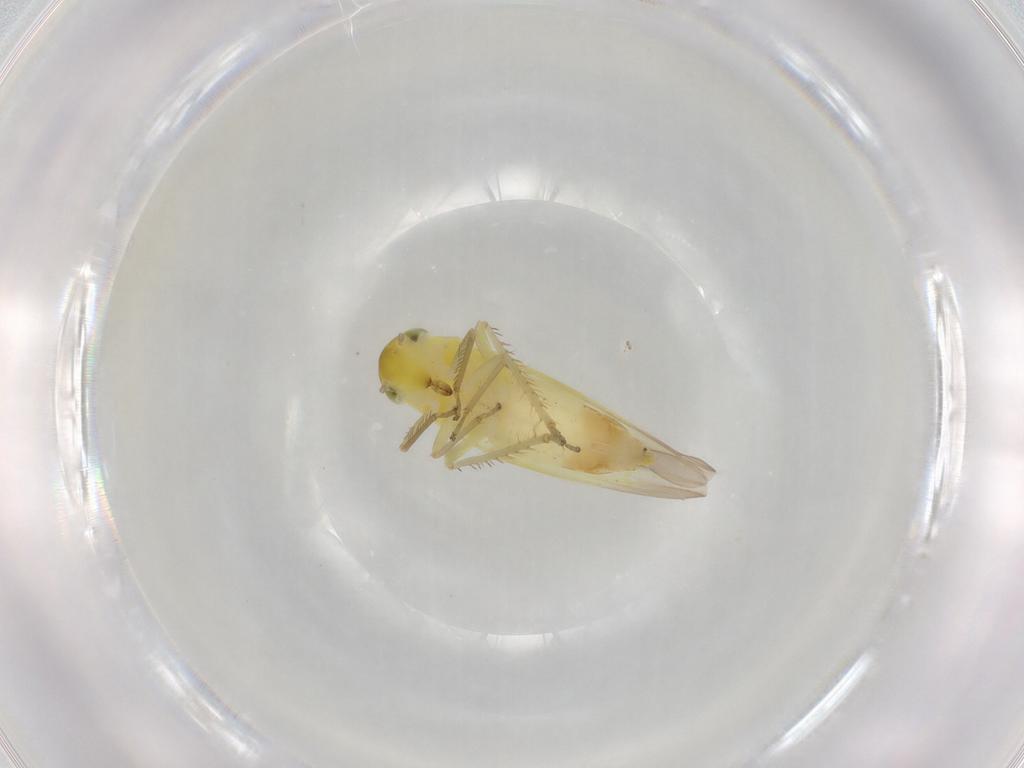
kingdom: Animalia
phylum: Arthropoda
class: Insecta
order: Hemiptera
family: Cicadellidae
